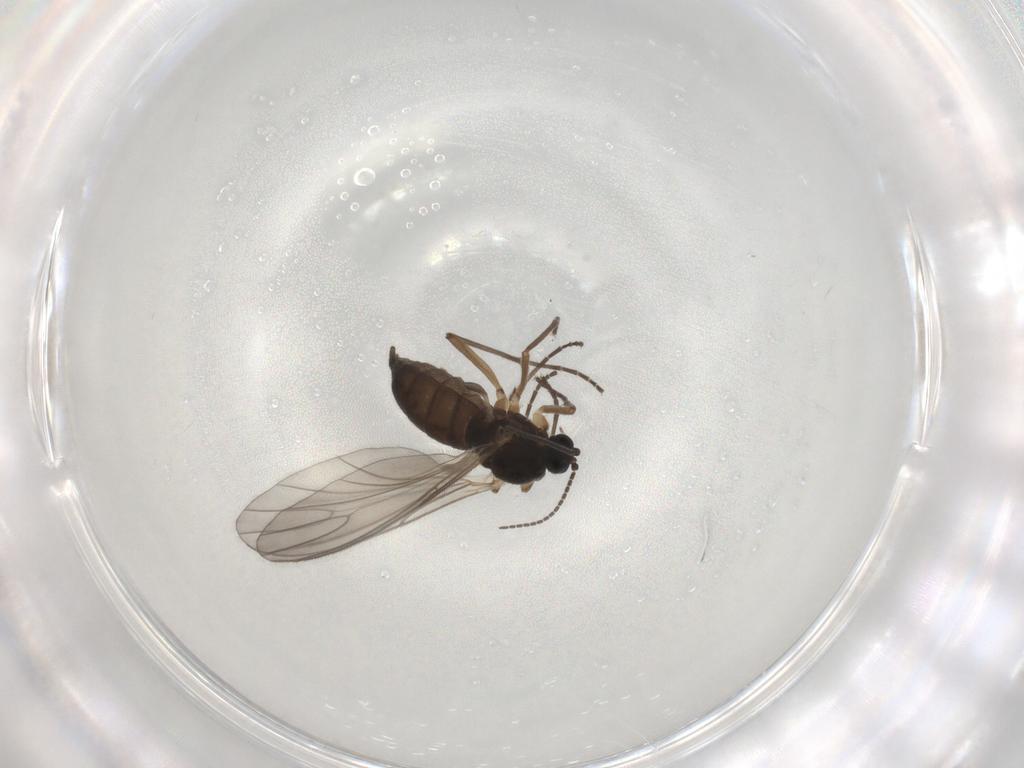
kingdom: Animalia
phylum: Arthropoda
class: Insecta
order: Diptera
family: Sciaridae
